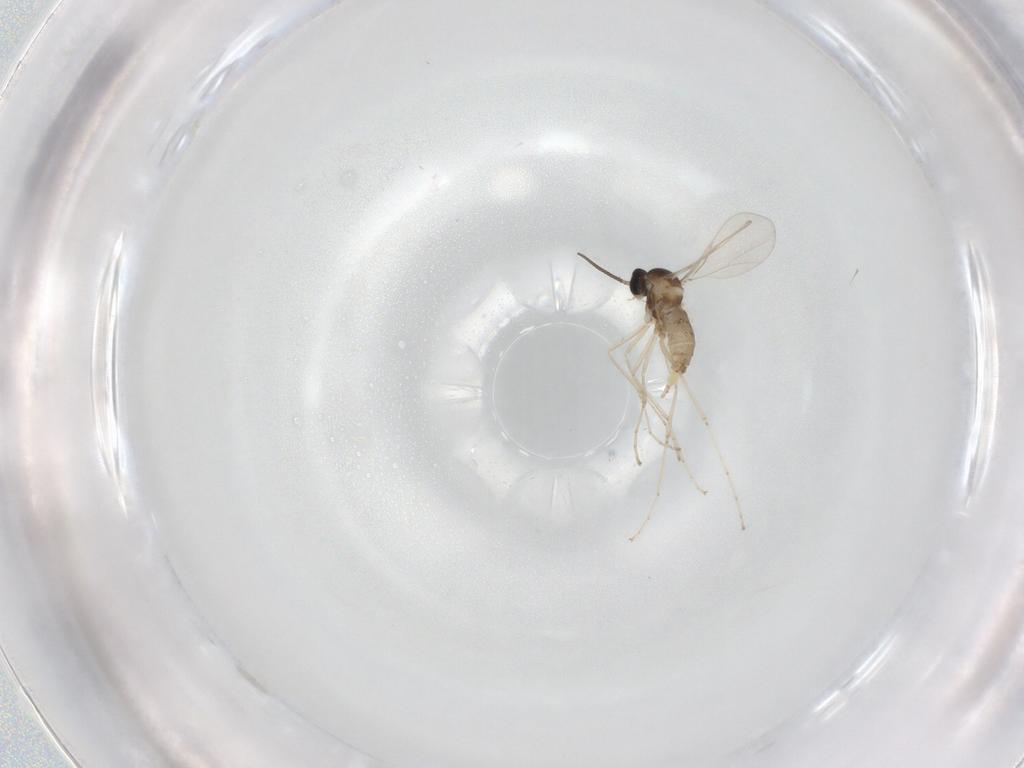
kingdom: Animalia
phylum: Arthropoda
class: Insecta
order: Diptera
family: Cecidomyiidae
